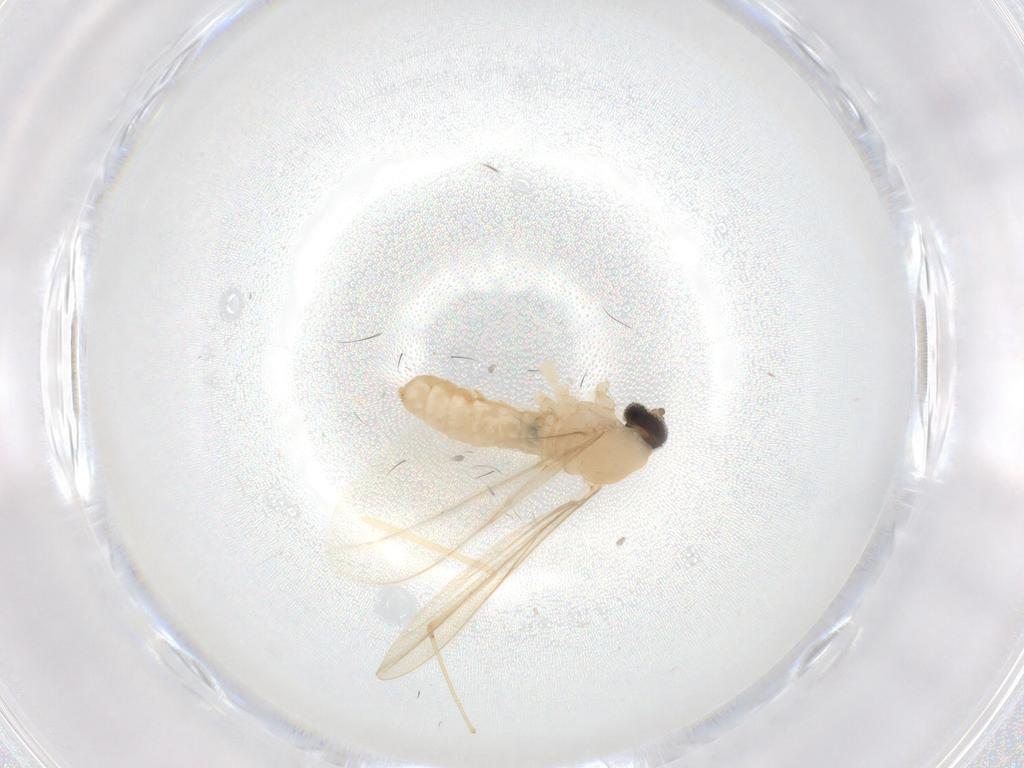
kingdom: Animalia
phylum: Arthropoda
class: Insecta
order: Diptera
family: Cecidomyiidae
